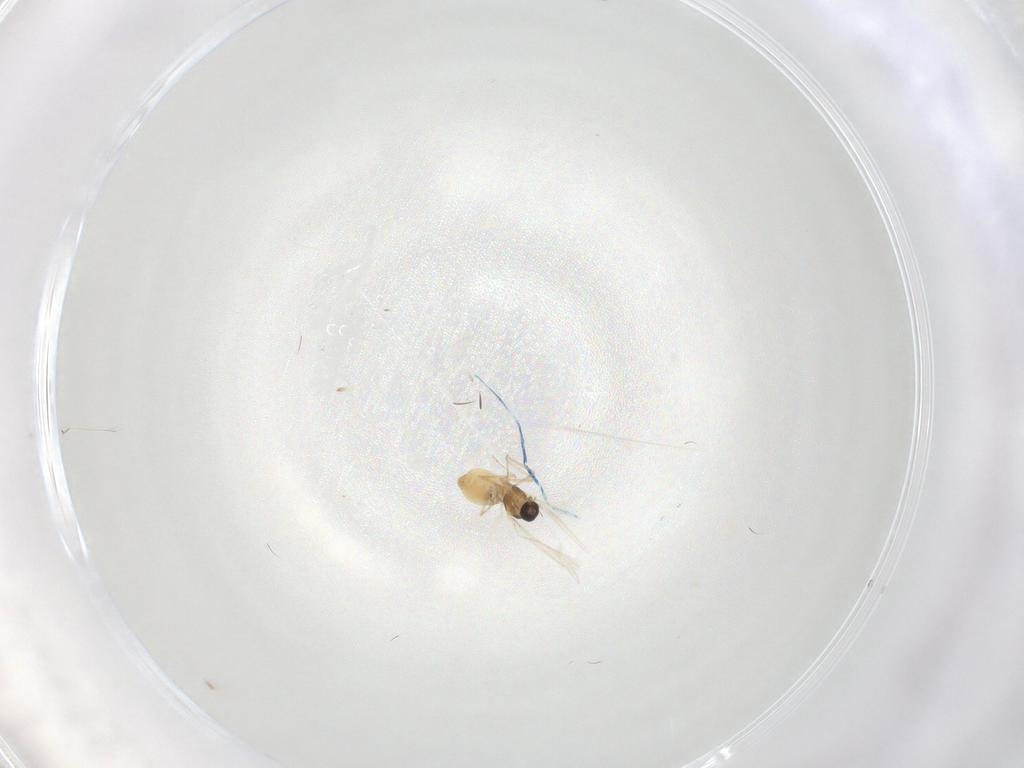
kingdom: Animalia
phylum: Arthropoda
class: Insecta
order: Diptera
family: Cecidomyiidae
